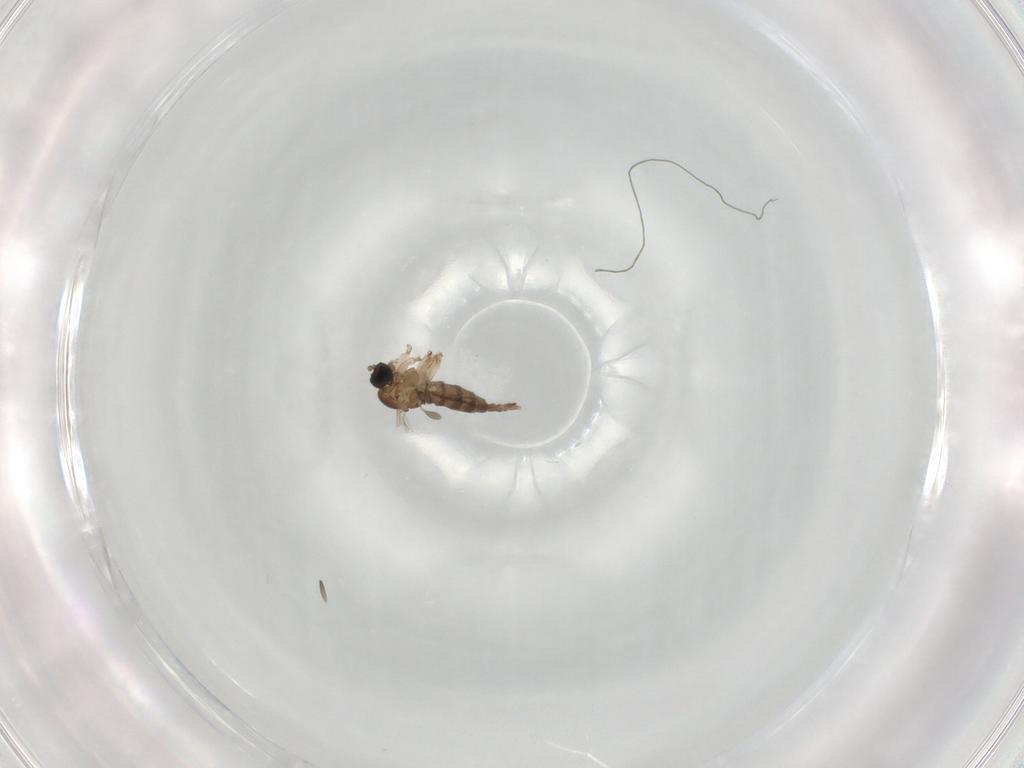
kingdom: Animalia
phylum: Arthropoda
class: Insecta
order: Diptera
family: Sciaridae
